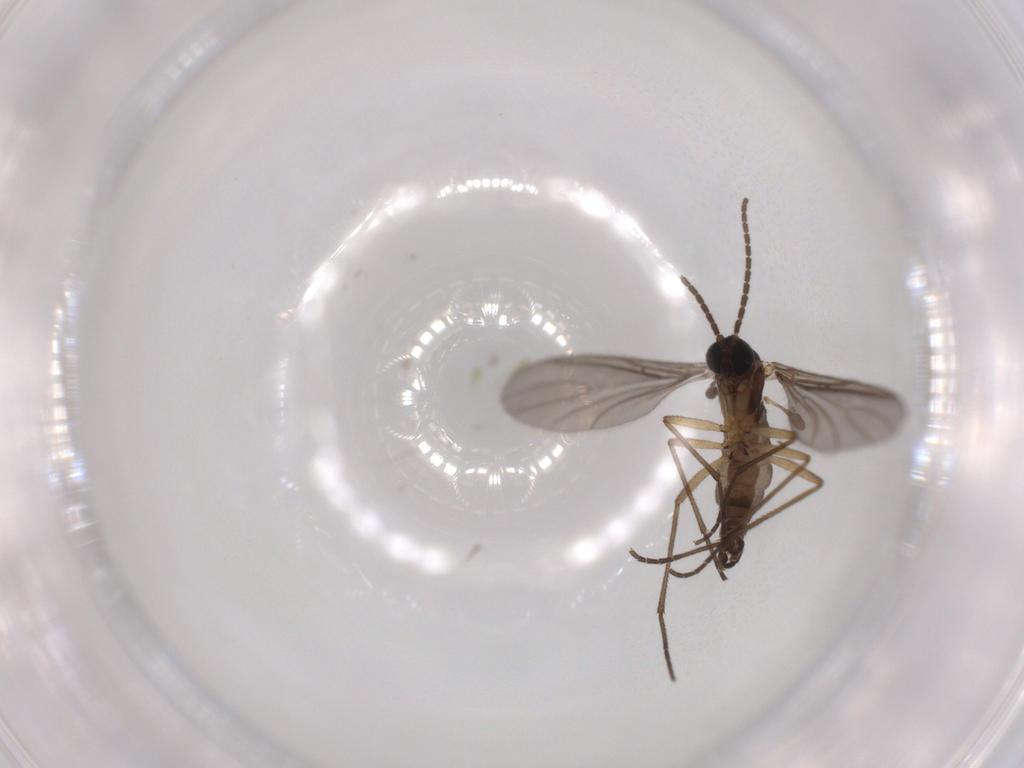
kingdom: Animalia
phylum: Arthropoda
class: Insecta
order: Diptera
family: Sciaridae
